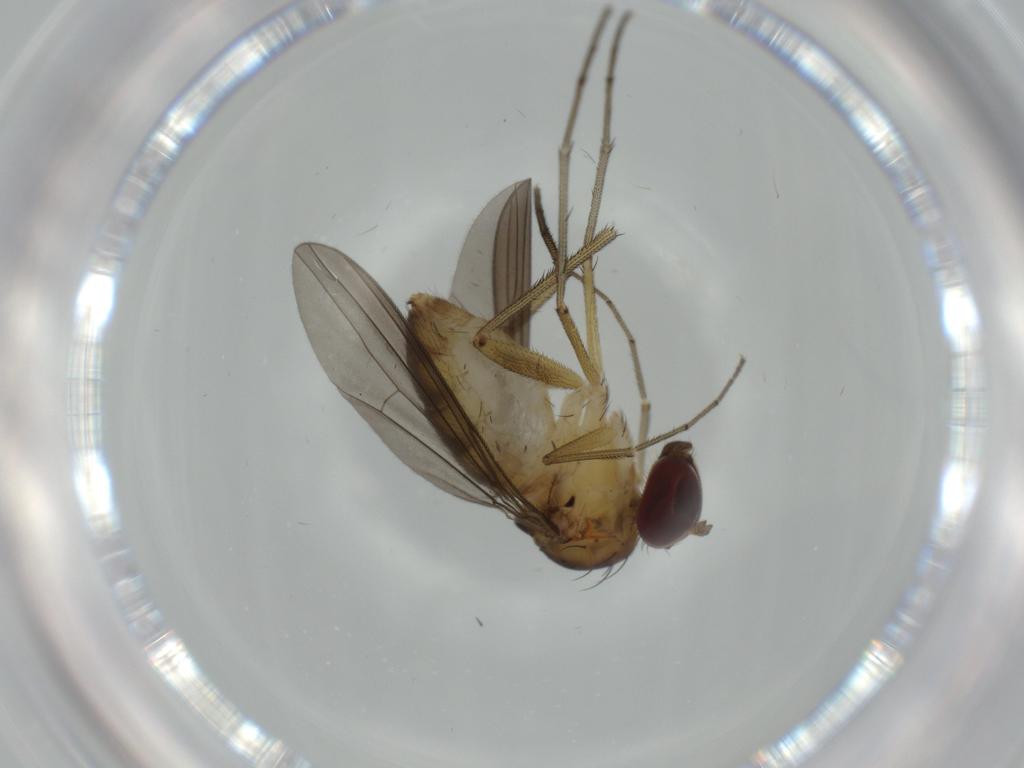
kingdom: Animalia
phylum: Arthropoda
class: Insecta
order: Diptera
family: Dolichopodidae
